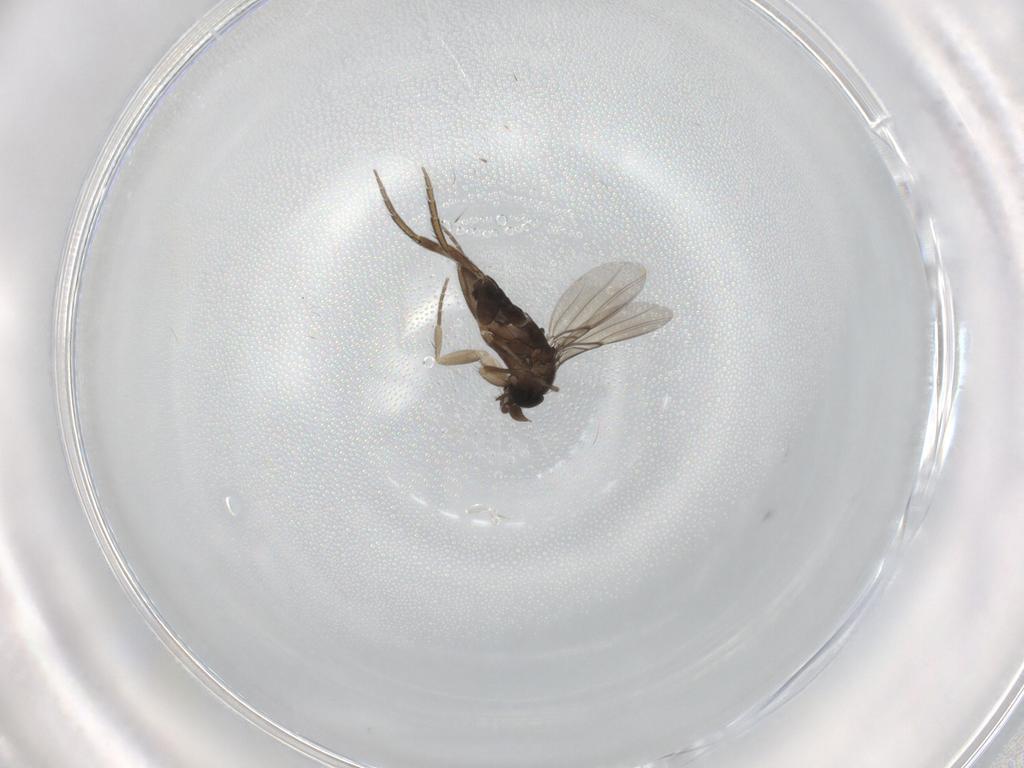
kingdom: Animalia
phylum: Arthropoda
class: Insecta
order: Diptera
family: Phoridae
